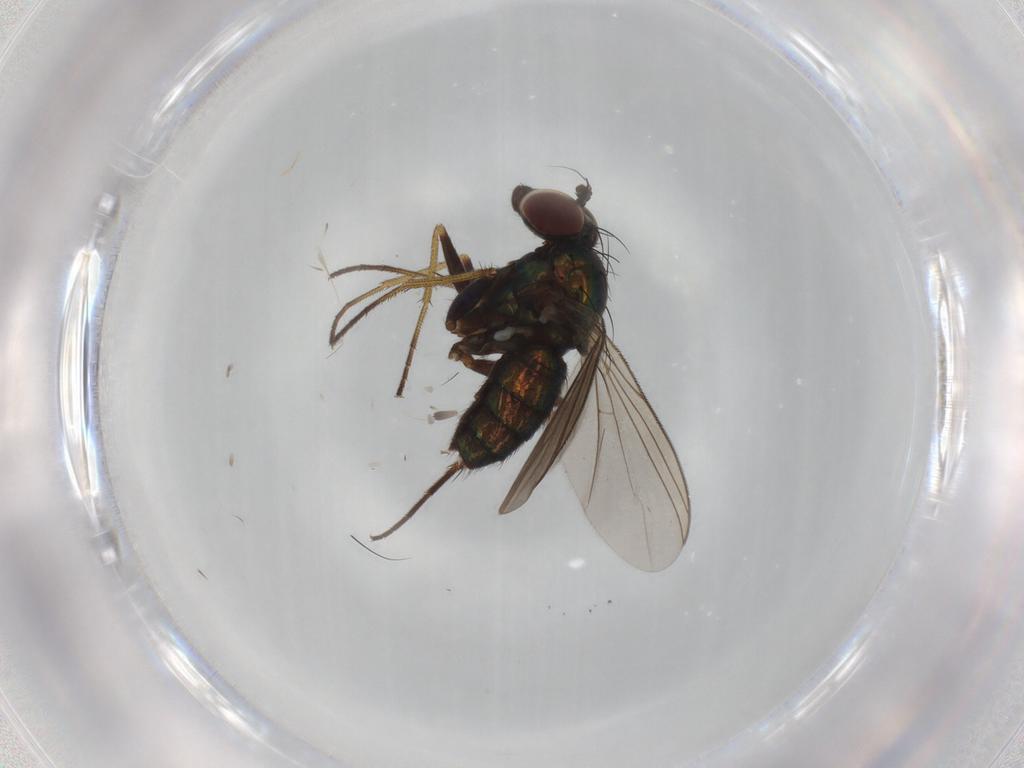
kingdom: Animalia
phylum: Arthropoda
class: Insecta
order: Diptera
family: Dolichopodidae
